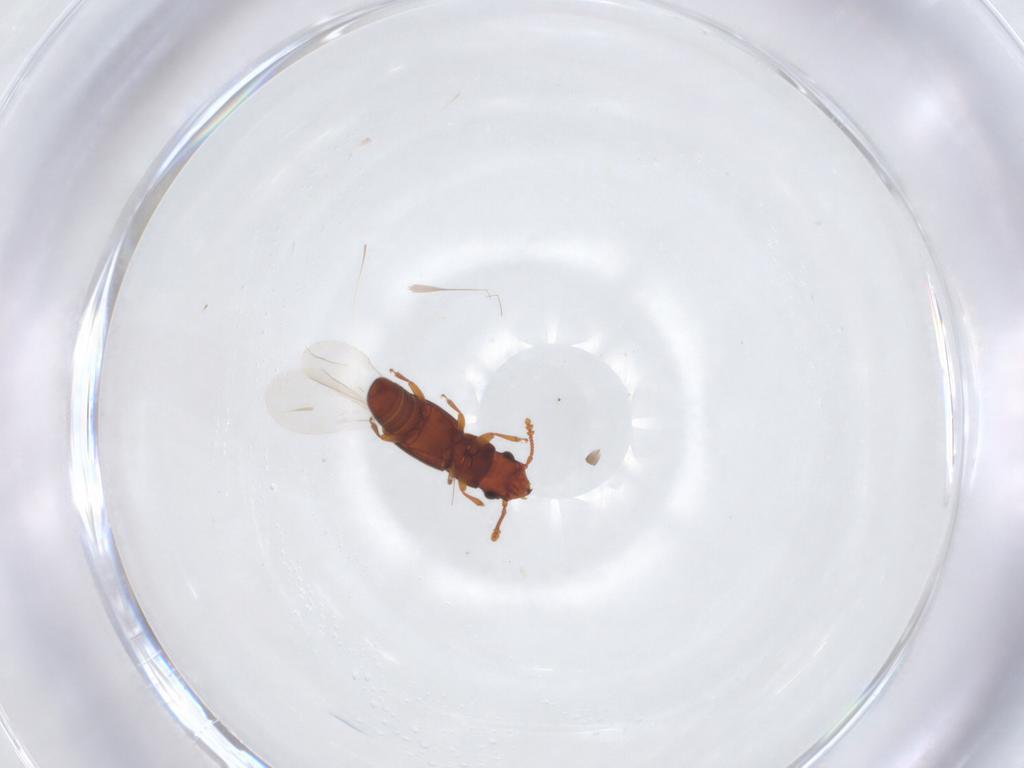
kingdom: Animalia
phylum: Arthropoda
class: Insecta
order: Coleoptera
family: Smicripidae
